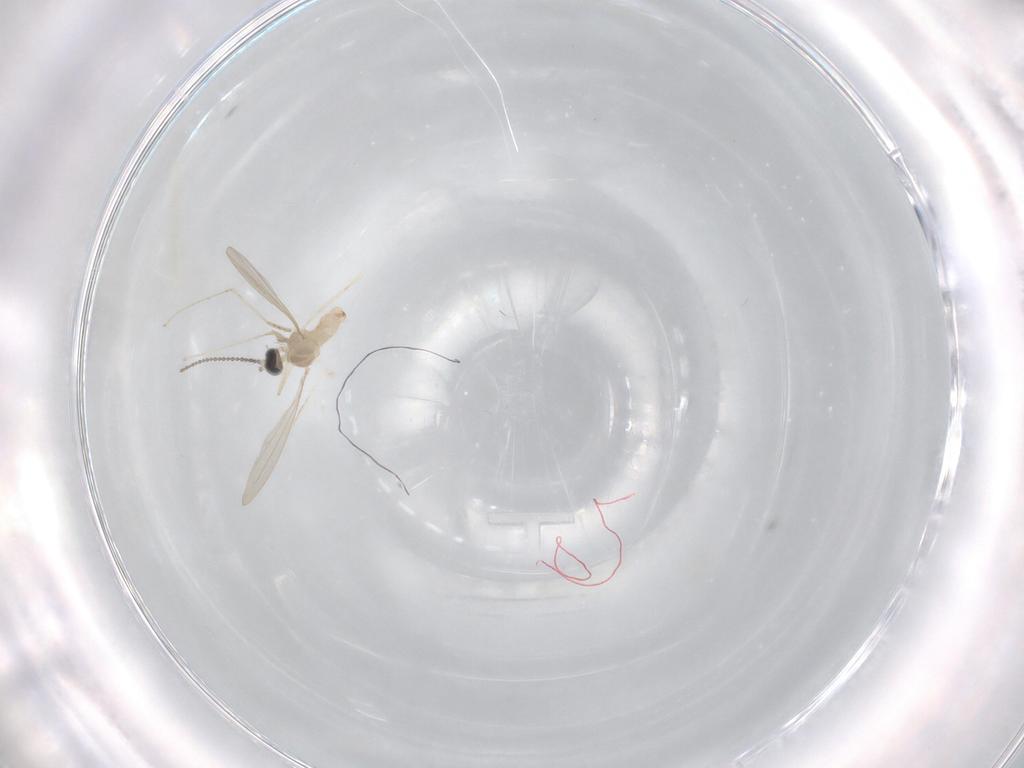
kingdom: Animalia
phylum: Arthropoda
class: Insecta
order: Diptera
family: Cecidomyiidae
